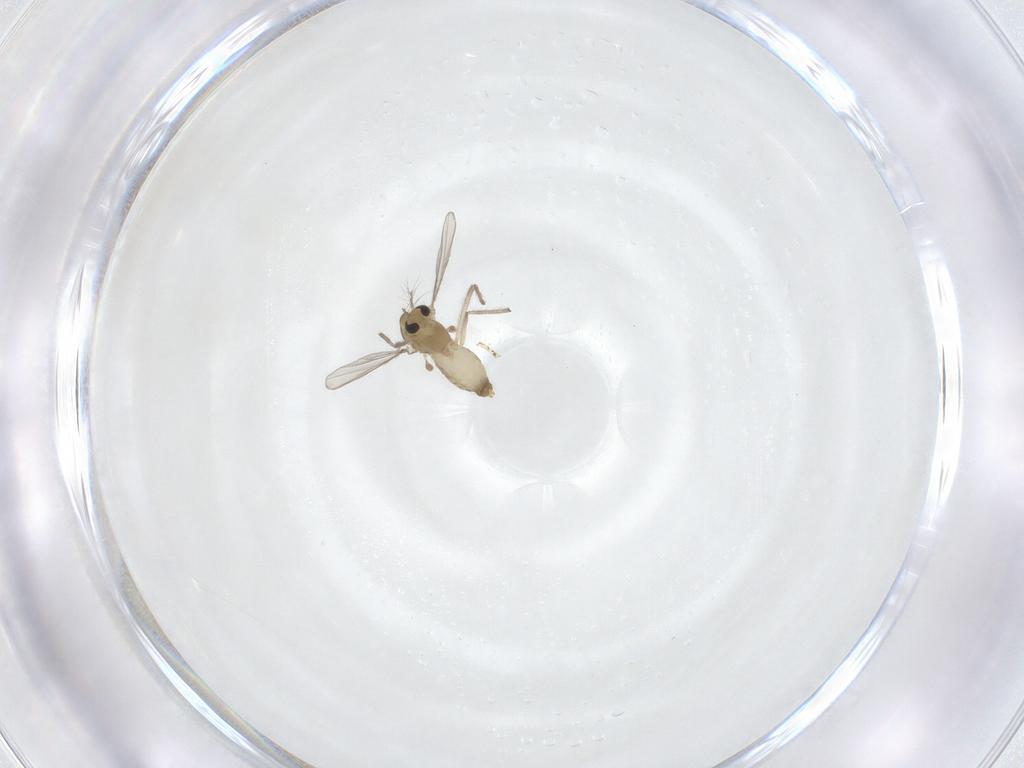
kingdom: Animalia
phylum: Arthropoda
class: Insecta
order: Diptera
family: Chironomidae
